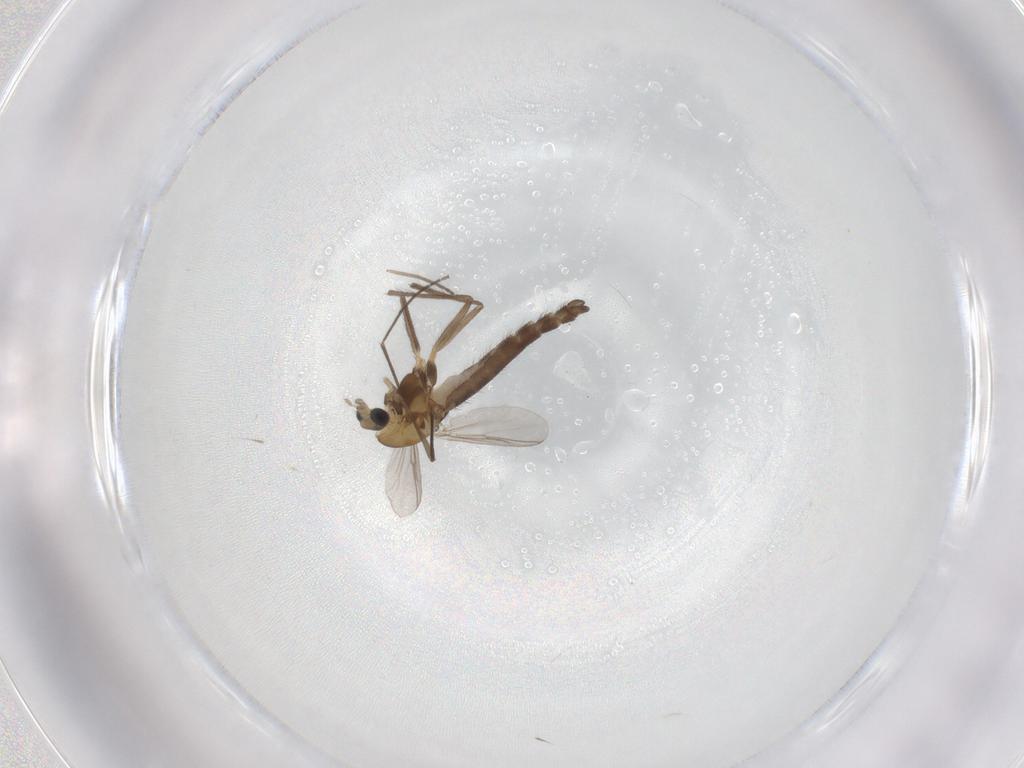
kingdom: Animalia
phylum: Arthropoda
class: Insecta
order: Diptera
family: Chironomidae
